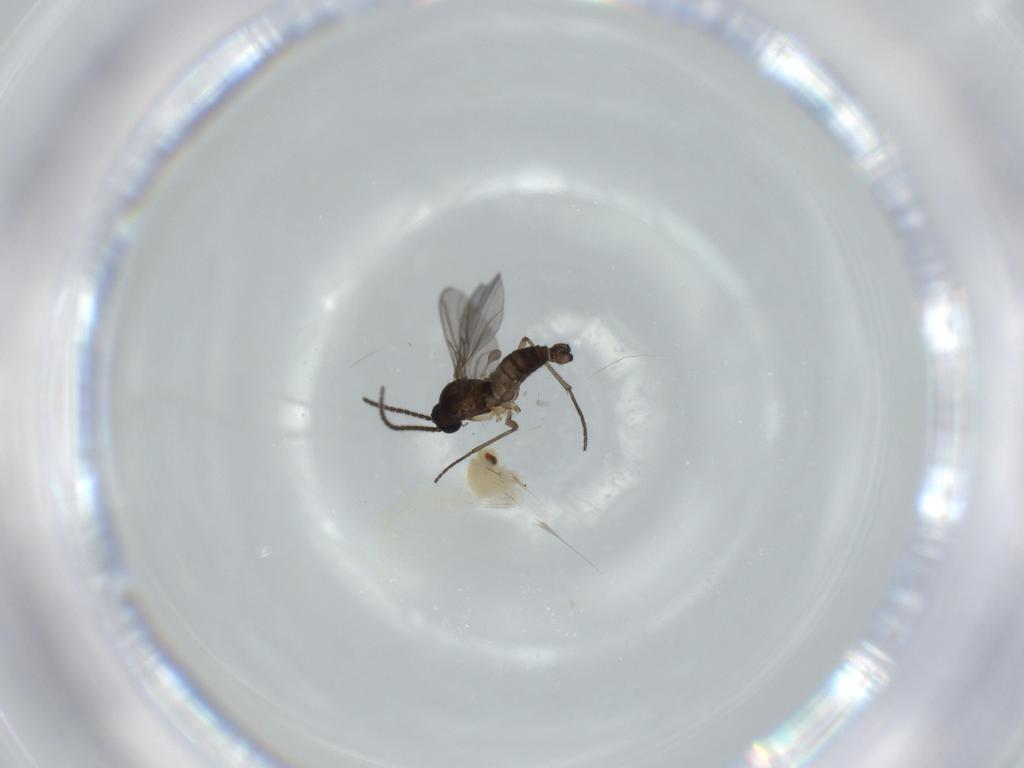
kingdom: Animalia
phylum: Arthropoda
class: Insecta
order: Diptera
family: Sciaridae
